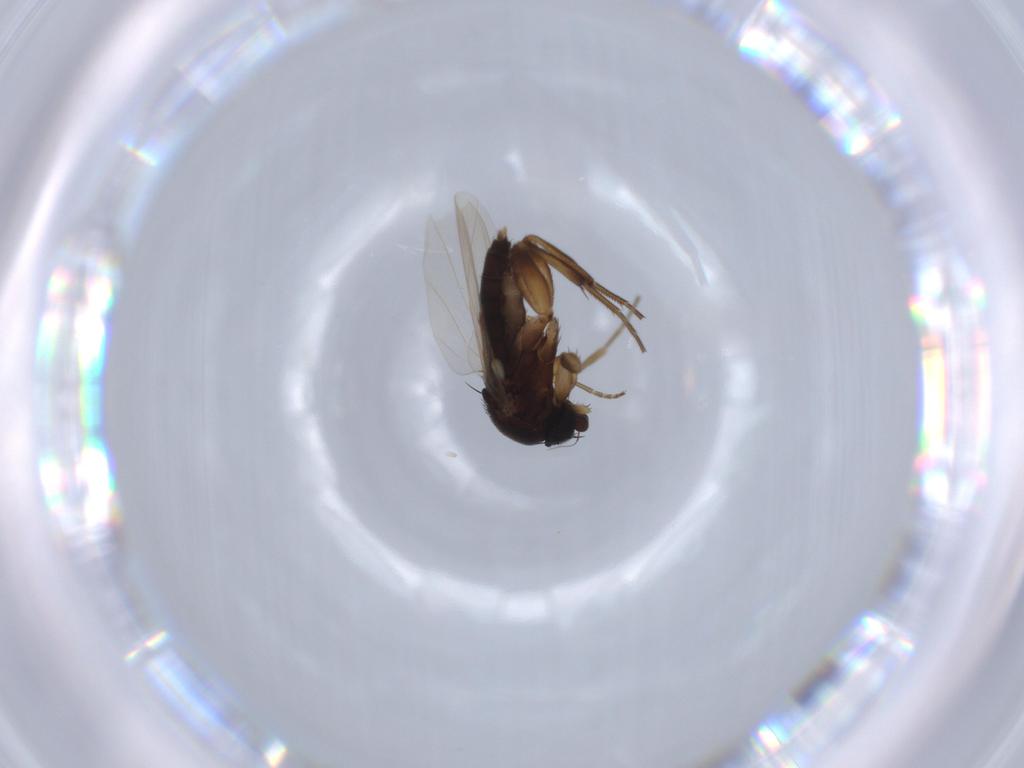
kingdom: Animalia
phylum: Arthropoda
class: Insecta
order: Diptera
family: Phoridae
